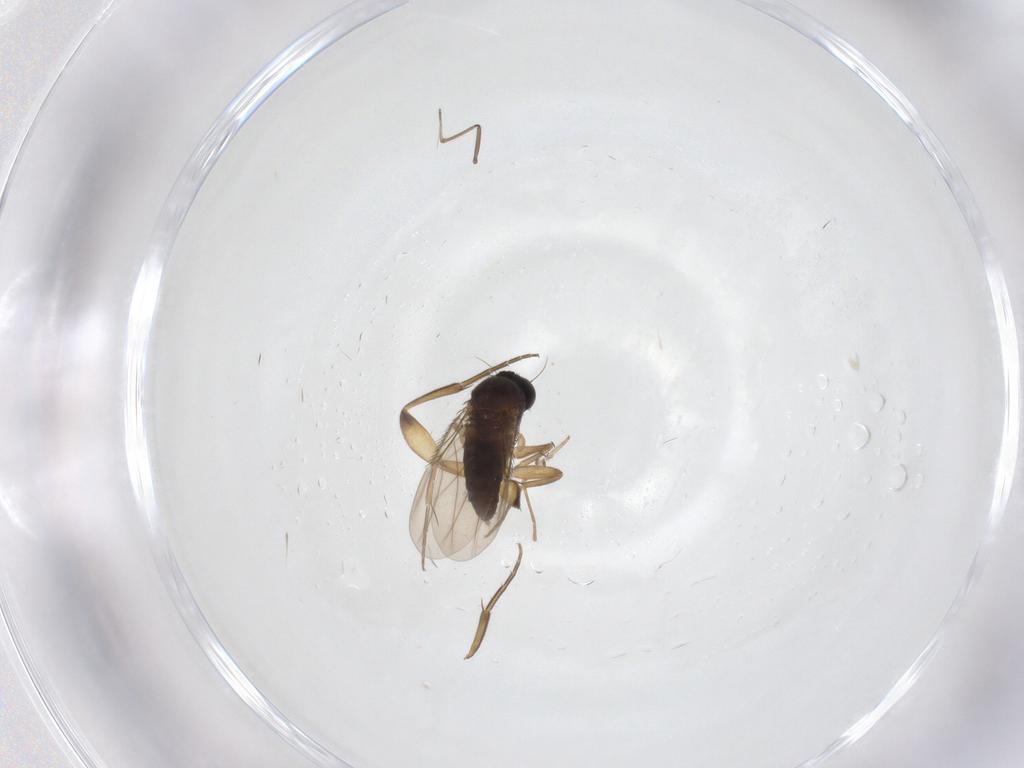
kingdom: Animalia
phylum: Arthropoda
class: Insecta
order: Diptera
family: Phoridae
